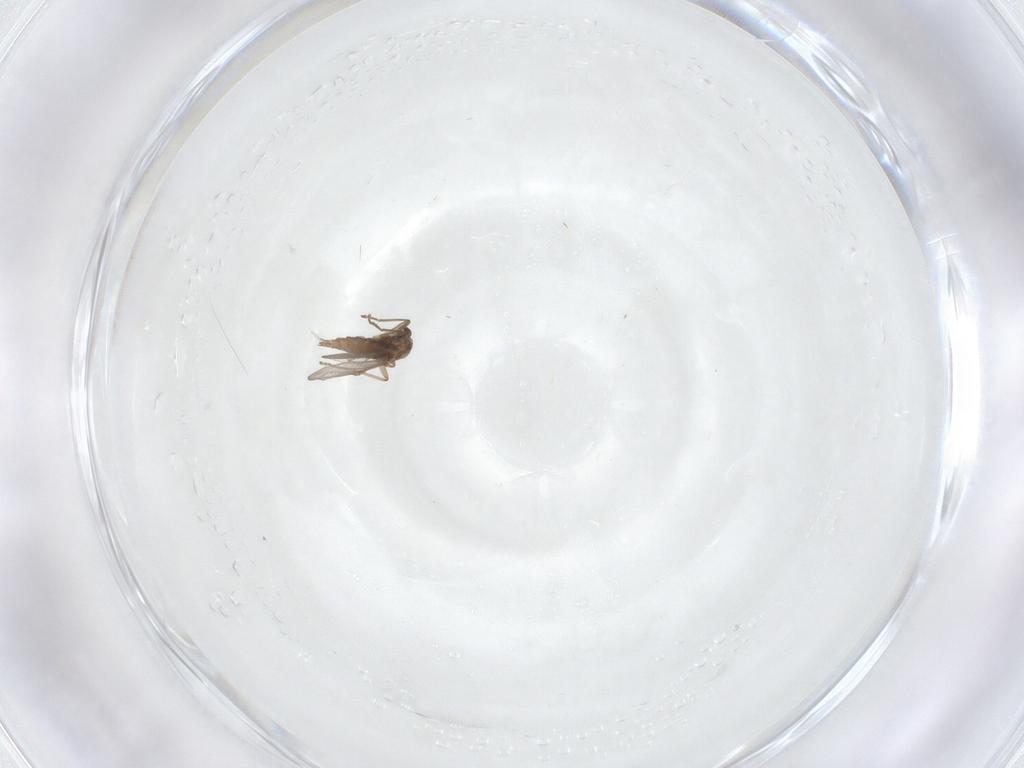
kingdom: Animalia
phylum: Arthropoda
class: Insecta
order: Diptera
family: Cecidomyiidae
